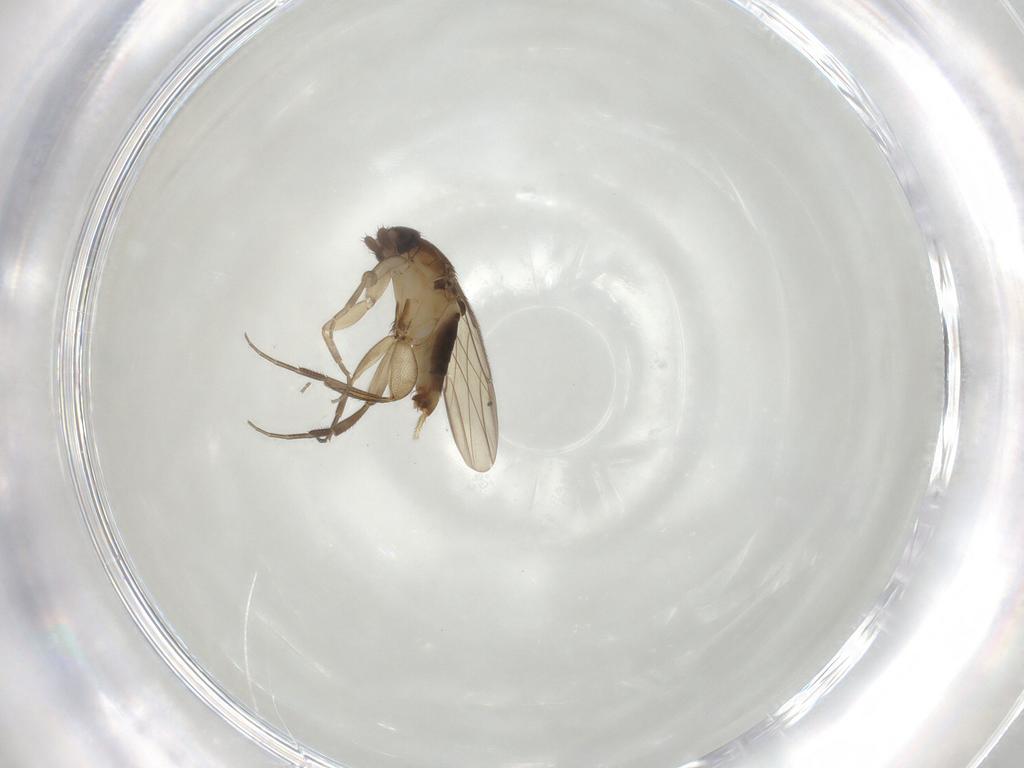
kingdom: Animalia
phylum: Arthropoda
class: Insecta
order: Diptera
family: Phoridae
